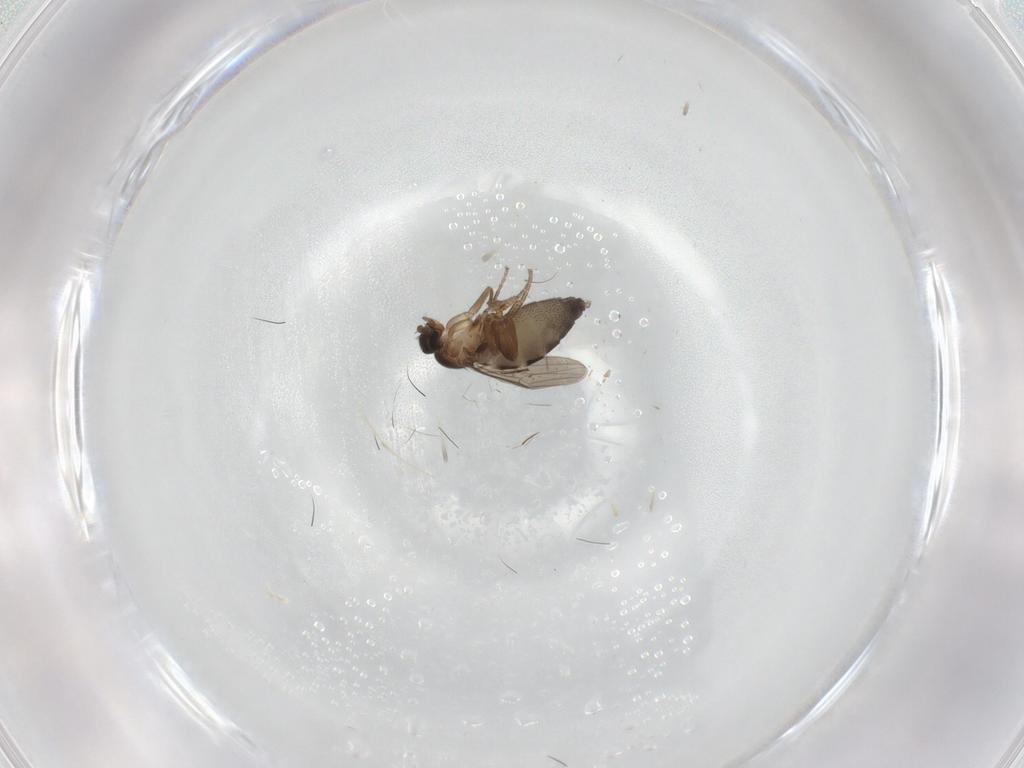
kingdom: Animalia
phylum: Arthropoda
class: Insecta
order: Diptera
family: Phoridae
